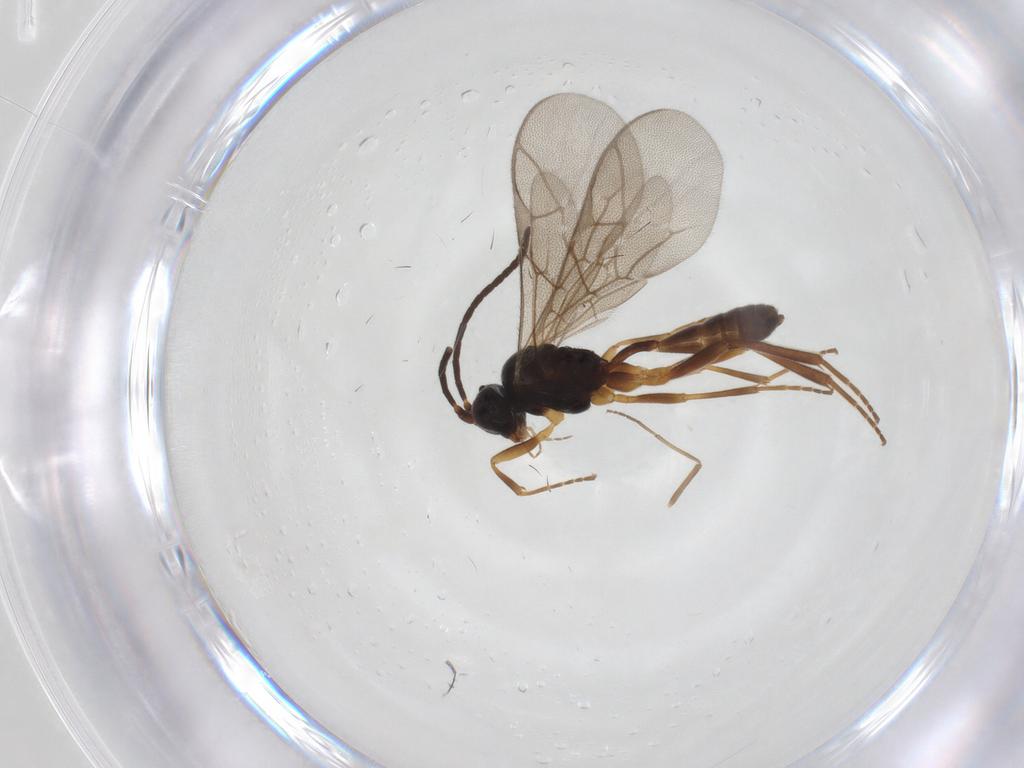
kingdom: Animalia
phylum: Arthropoda
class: Insecta
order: Hymenoptera
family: Ichneumonidae
